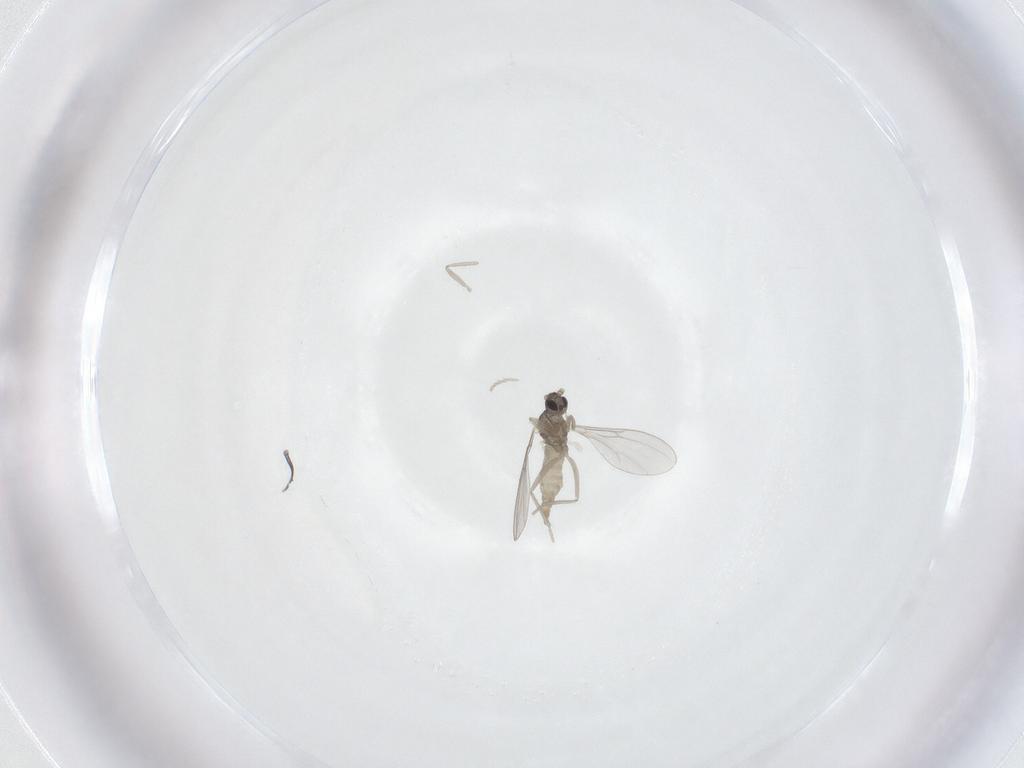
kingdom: Animalia
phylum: Arthropoda
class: Insecta
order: Diptera
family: Cecidomyiidae
